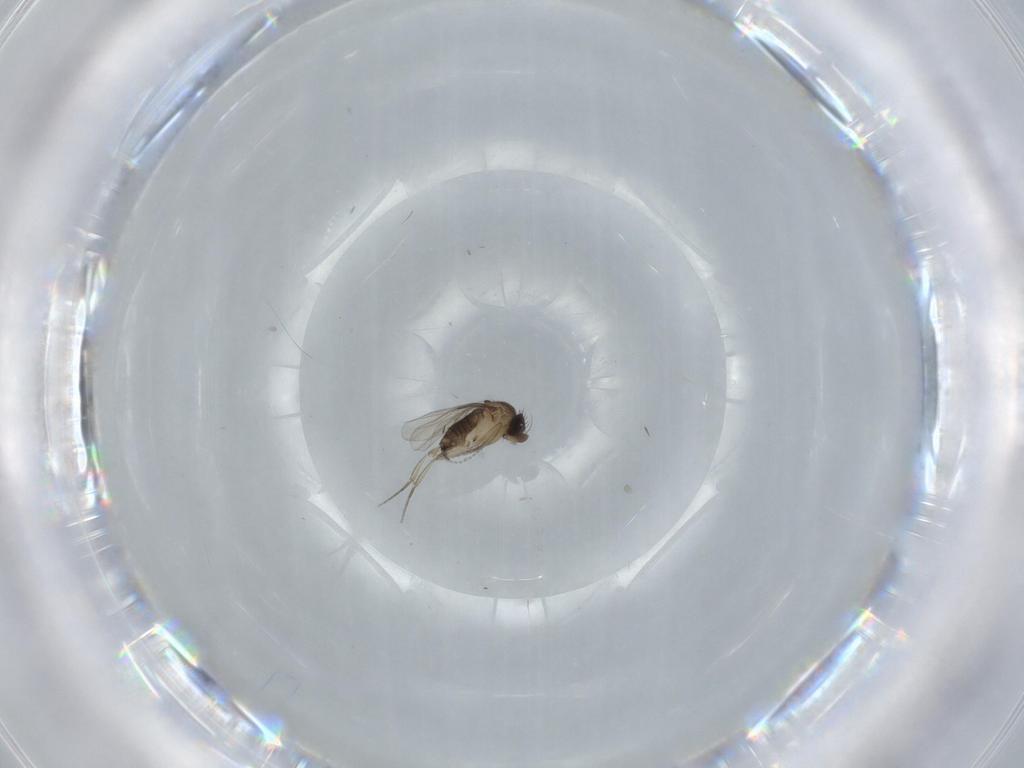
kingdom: Animalia
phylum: Arthropoda
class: Insecta
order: Diptera
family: Phoridae
